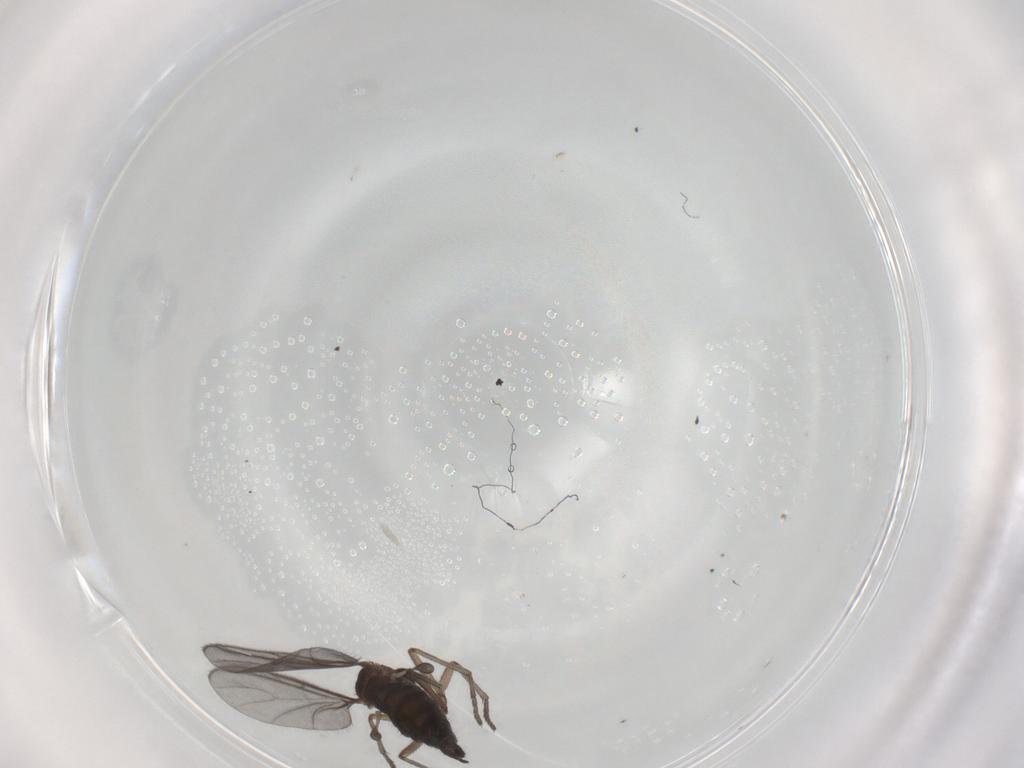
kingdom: Animalia
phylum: Arthropoda
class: Insecta
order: Diptera
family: Sciaridae
